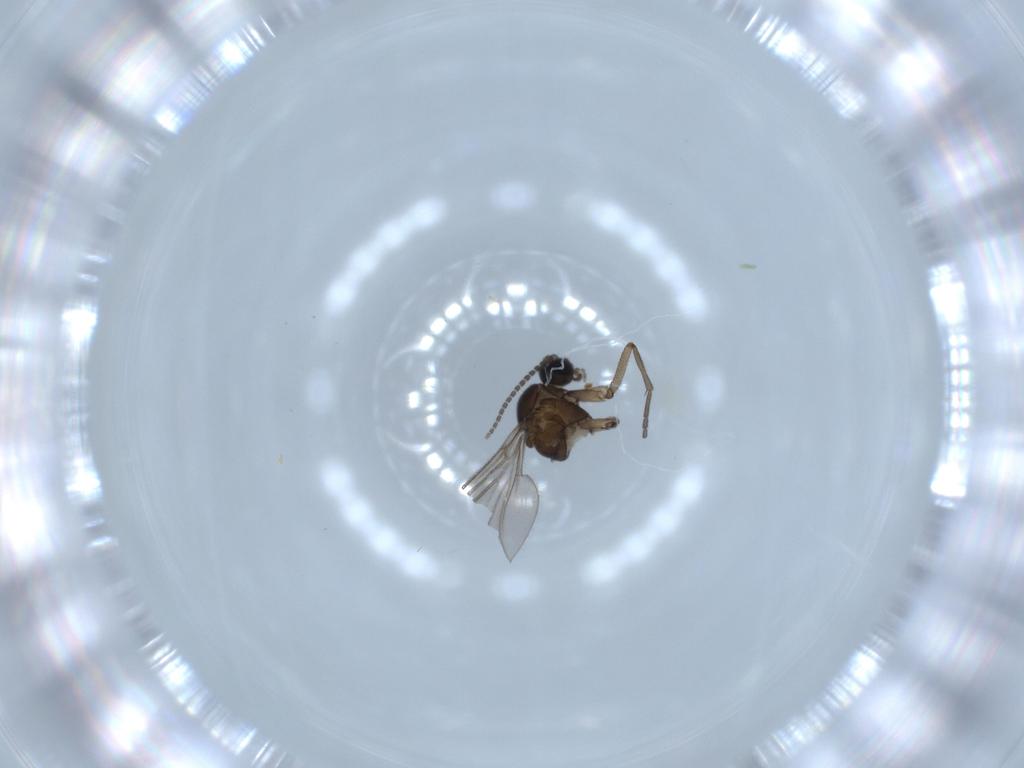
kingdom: Animalia
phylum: Arthropoda
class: Insecta
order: Diptera
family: Sciaridae
